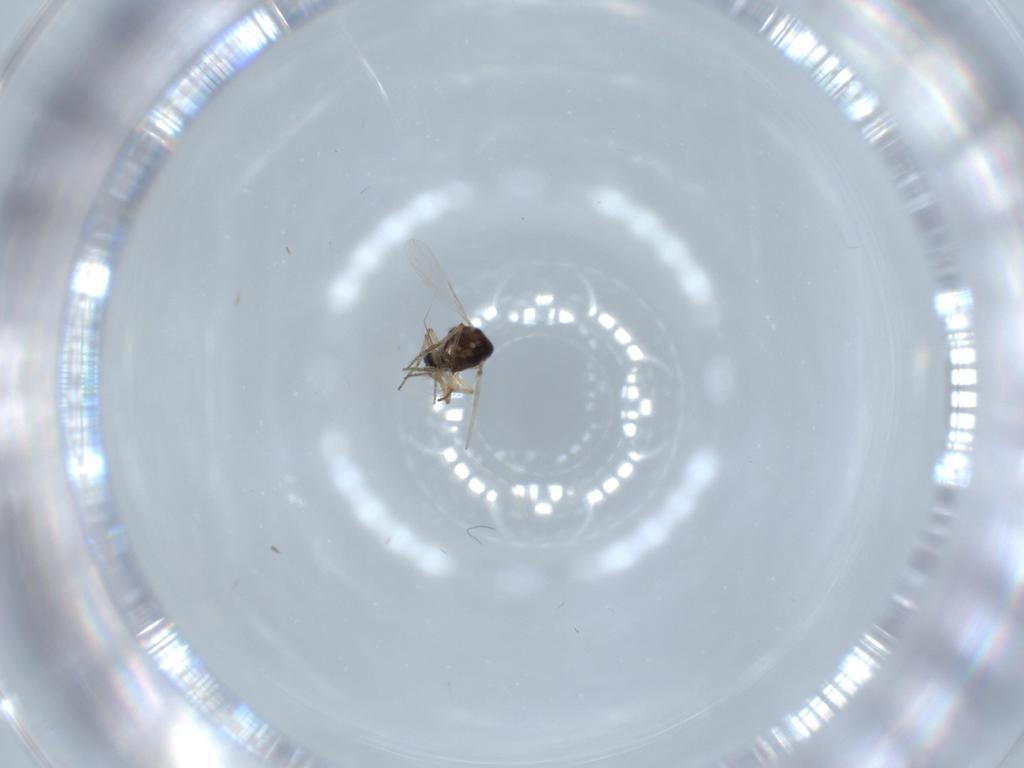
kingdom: Animalia
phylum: Arthropoda
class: Insecta
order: Diptera
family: Ceratopogonidae
